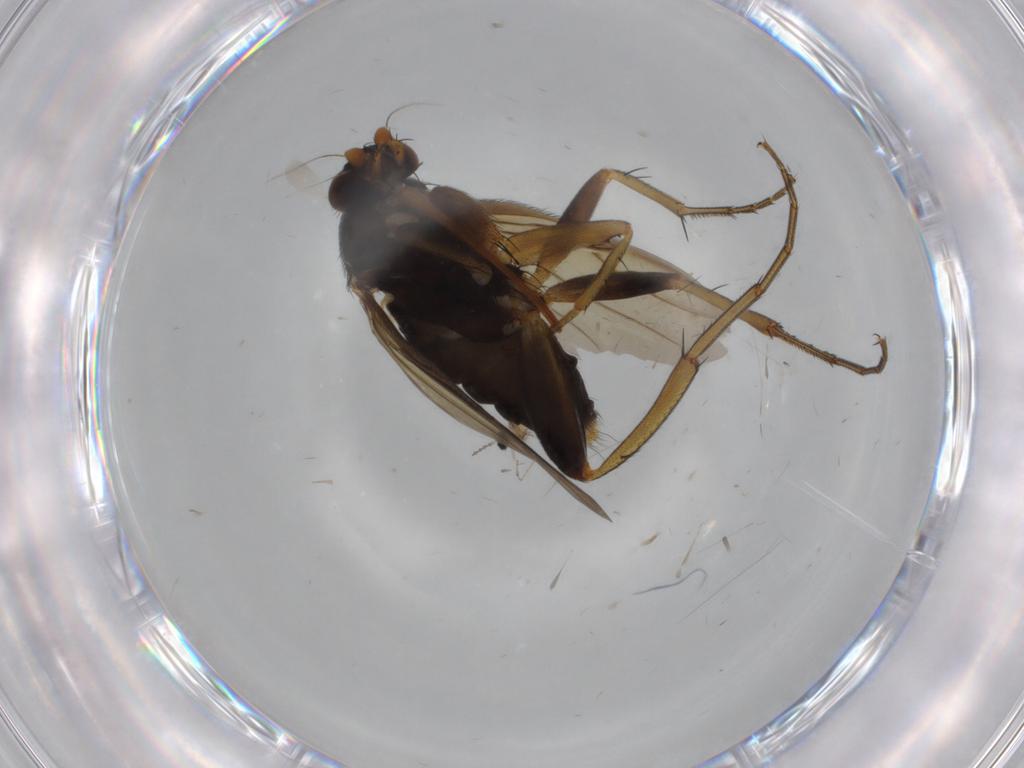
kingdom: Animalia
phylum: Arthropoda
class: Insecta
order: Diptera
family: Phoridae
